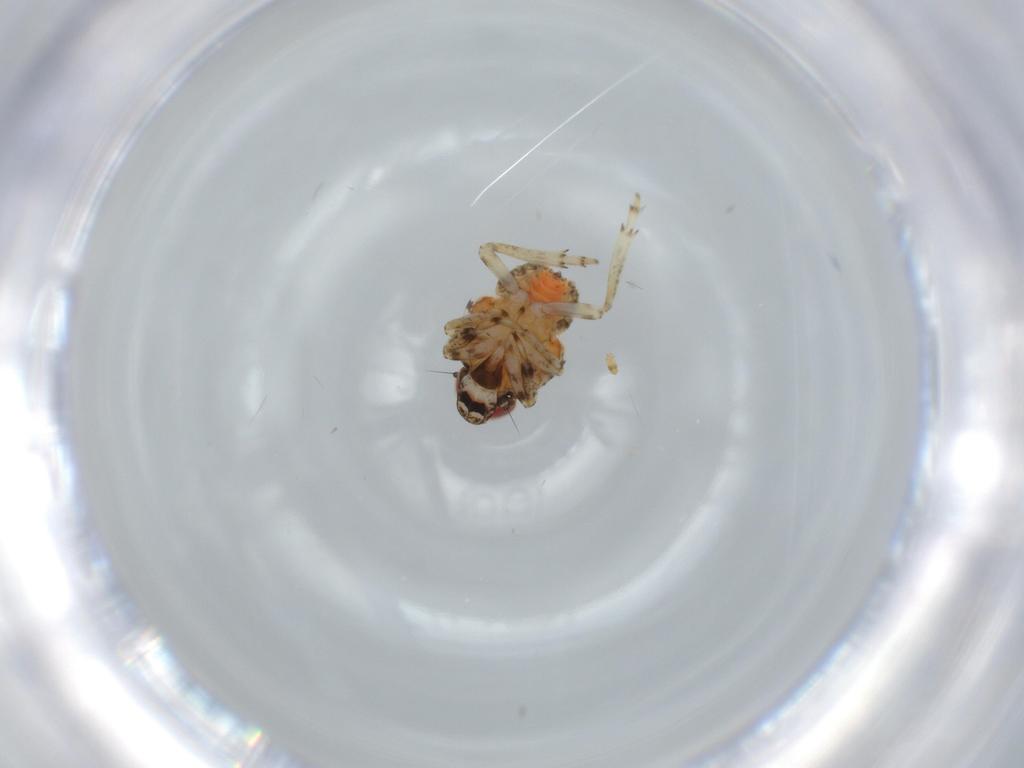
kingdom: Animalia
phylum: Arthropoda
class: Insecta
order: Hemiptera
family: Issidae
